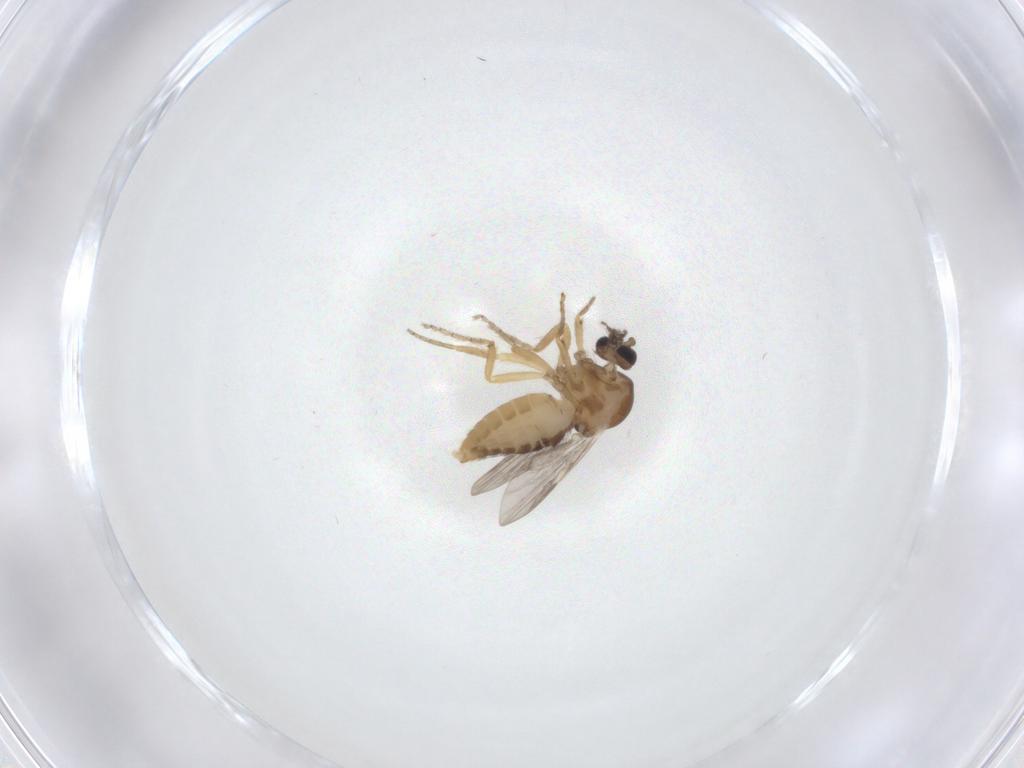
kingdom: Animalia
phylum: Arthropoda
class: Insecta
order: Diptera
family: Ceratopogonidae
